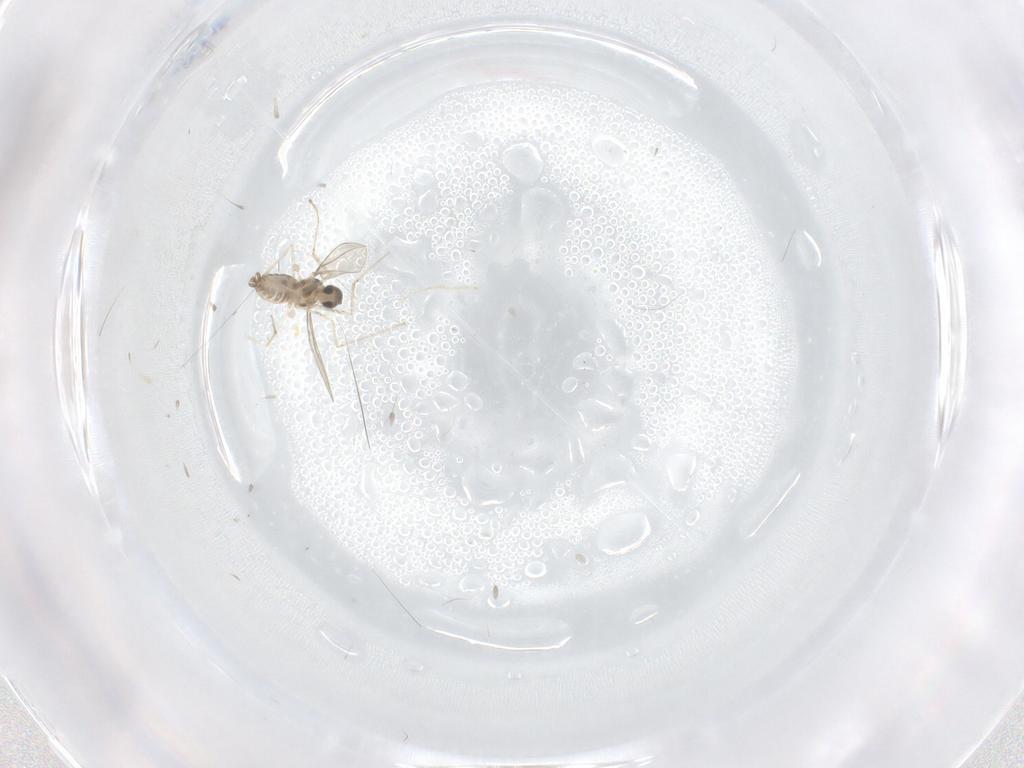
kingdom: Animalia
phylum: Arthropoda
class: Insecta
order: Diptera
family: Cecidomyiidae
